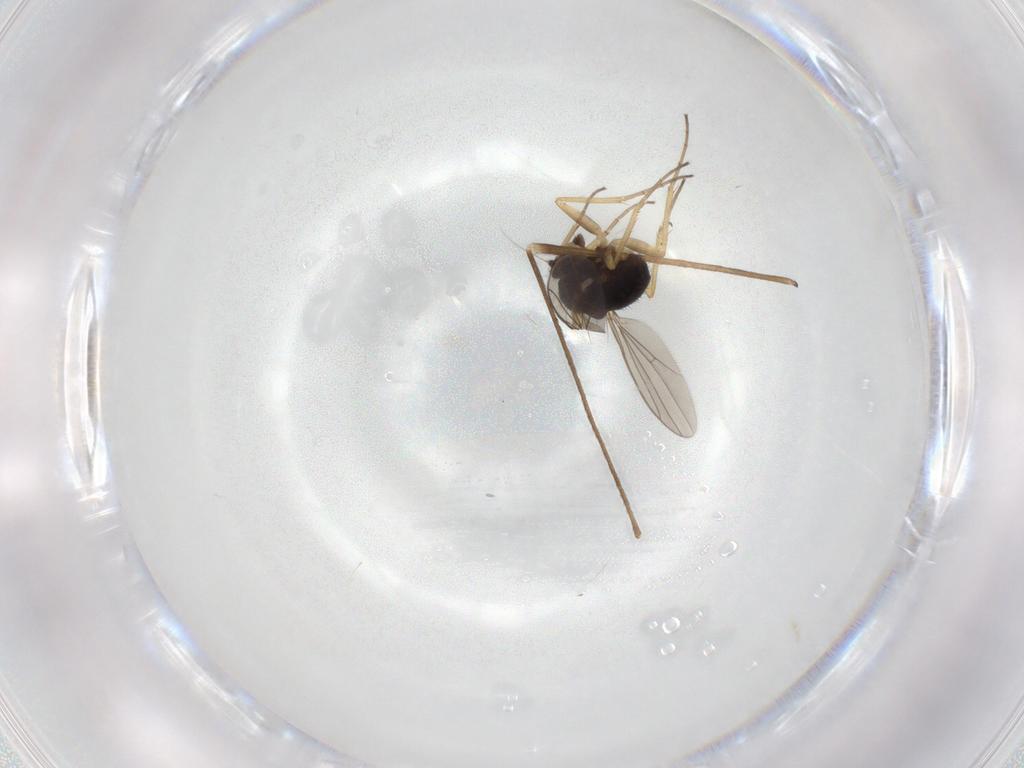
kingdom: Animalia
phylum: Arthropoda
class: Insecta
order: Diptera
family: Dolichopodidae
